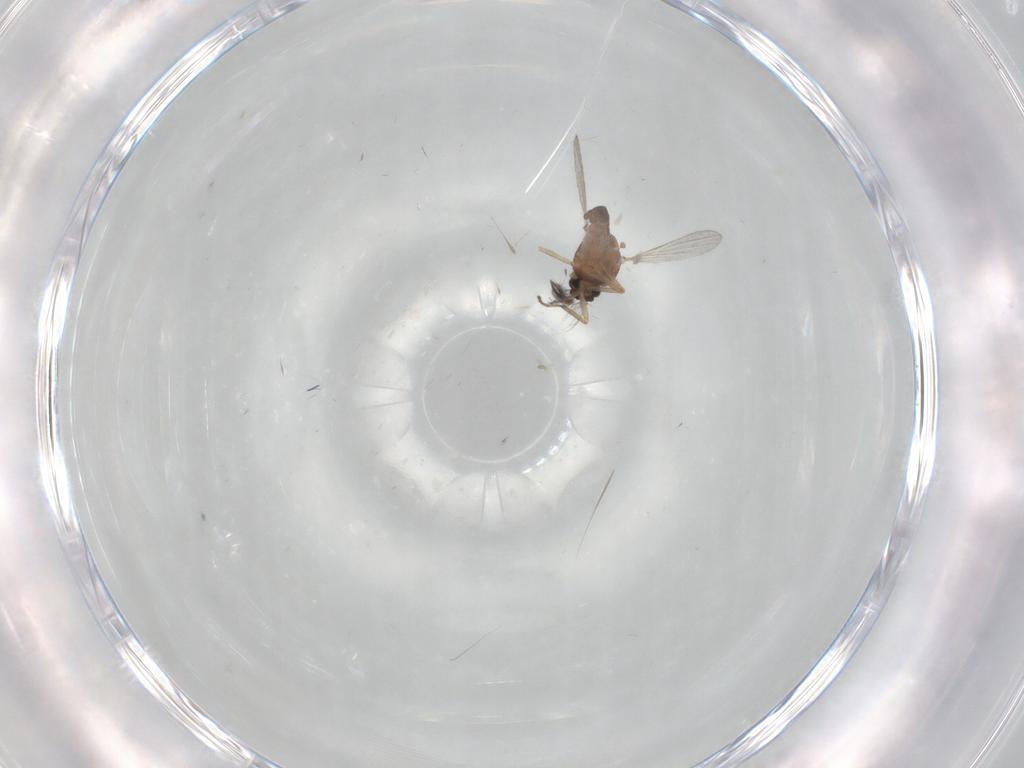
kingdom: Animalia
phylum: Arthropoda
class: Insecta
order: Diptera
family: Ceratopogonidae
